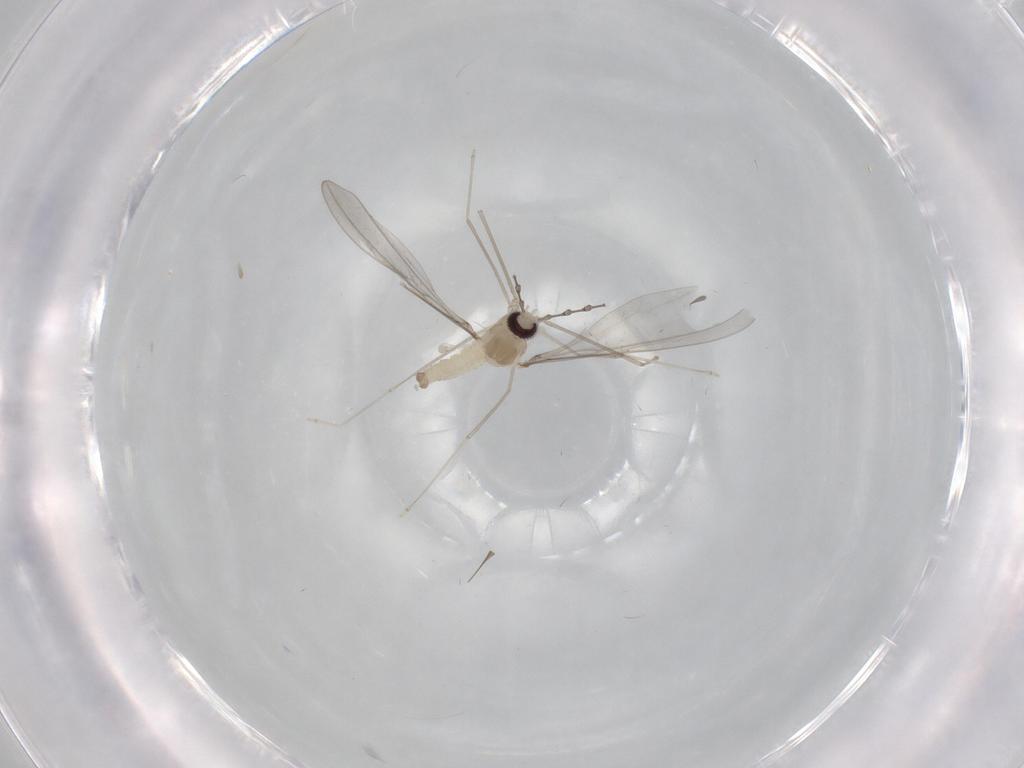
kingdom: Animalia
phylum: Arthropoda
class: Insecta
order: Diptera
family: Cecidomyiidae
